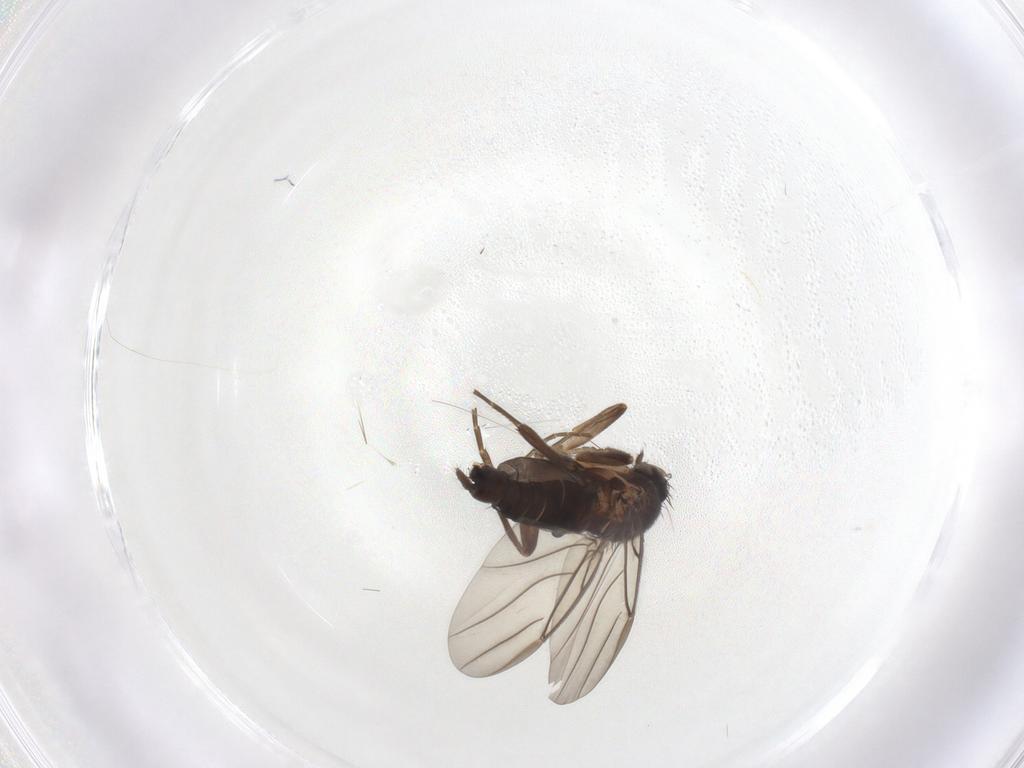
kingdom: Animalia
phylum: Arthropoda
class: Insecta
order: Diptera
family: Phoridae
